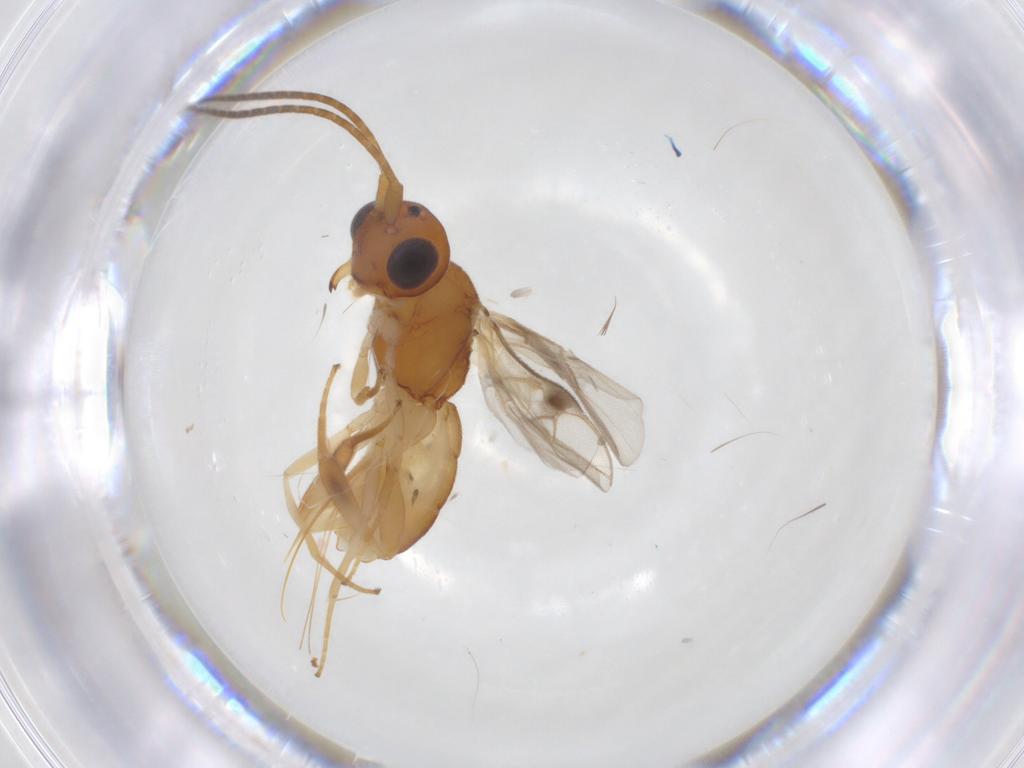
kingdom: Animalia
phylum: Arthropoda
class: Insecta
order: Hymenoptera
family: Braconidae
